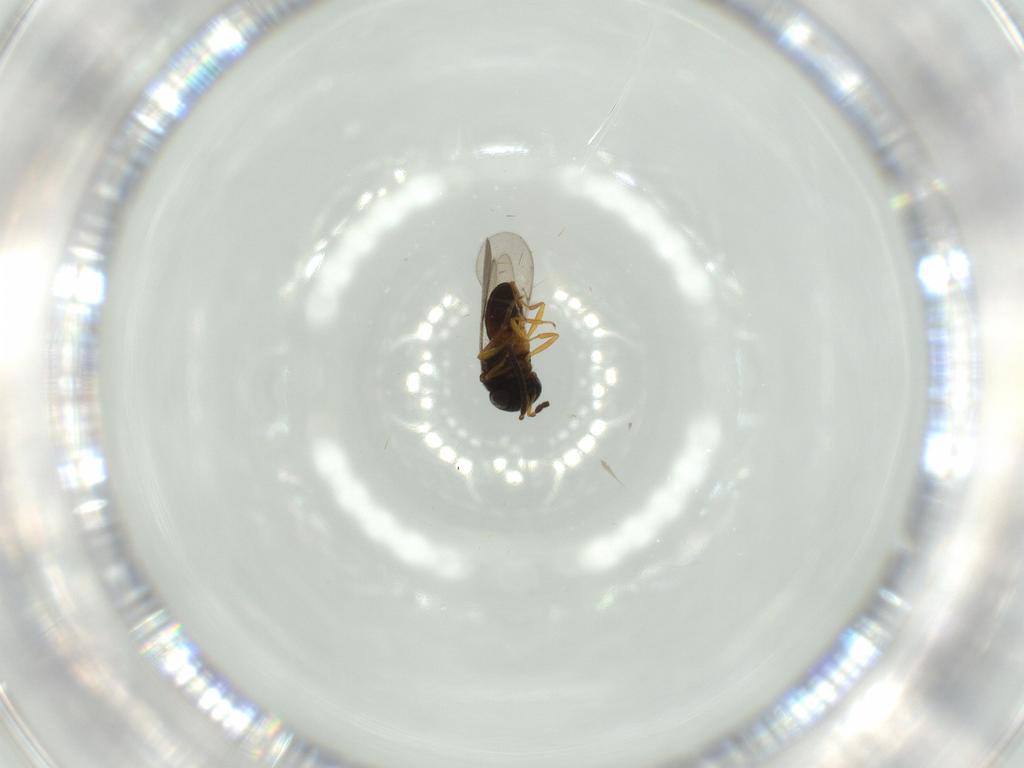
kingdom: Animalia
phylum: Arthropoda
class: Insecta
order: Hymenoptera
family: Scelionidae
